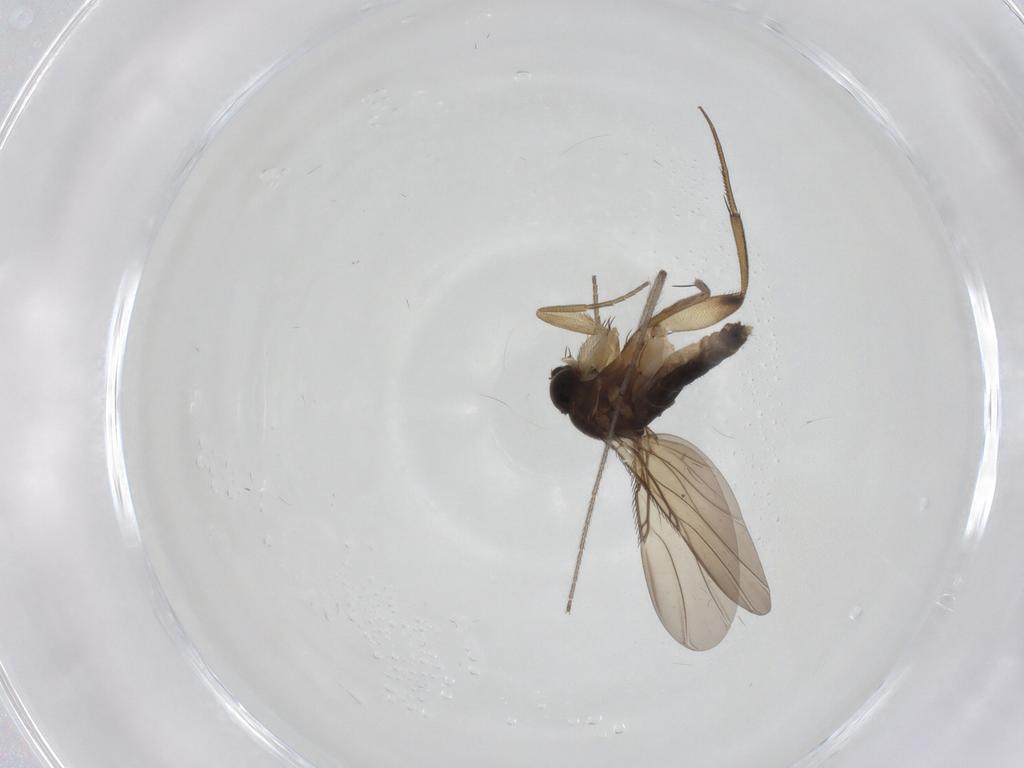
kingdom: Animalia
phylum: Arthropoda
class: Insecta
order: Diptera
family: Phoridae
